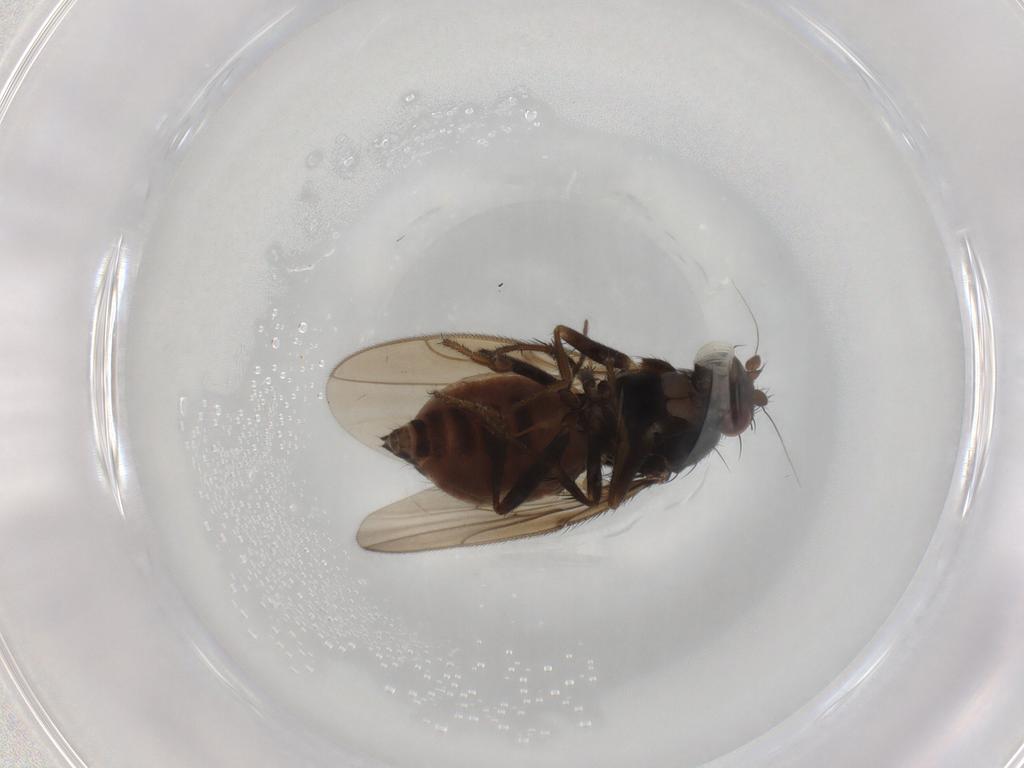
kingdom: Animalia
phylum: Arthropoda
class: Insecta
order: Diptera
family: Sphaeroceridae
